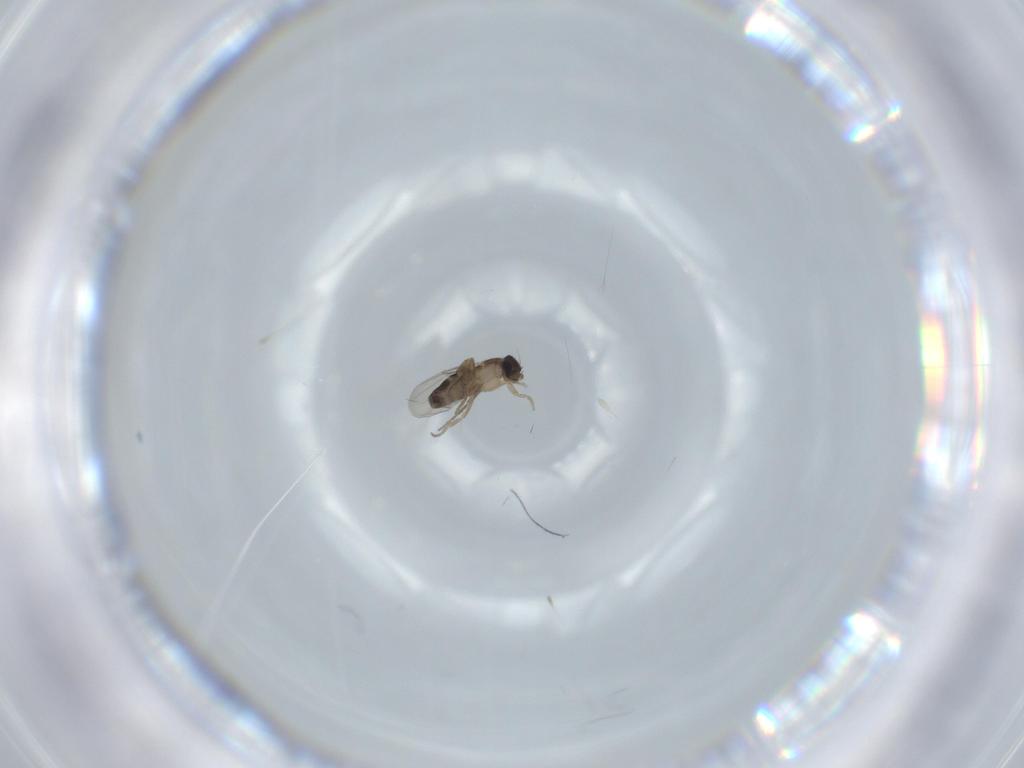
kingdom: Animalia
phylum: Arthropoda
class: Insecta
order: Diptera
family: Phoridae
